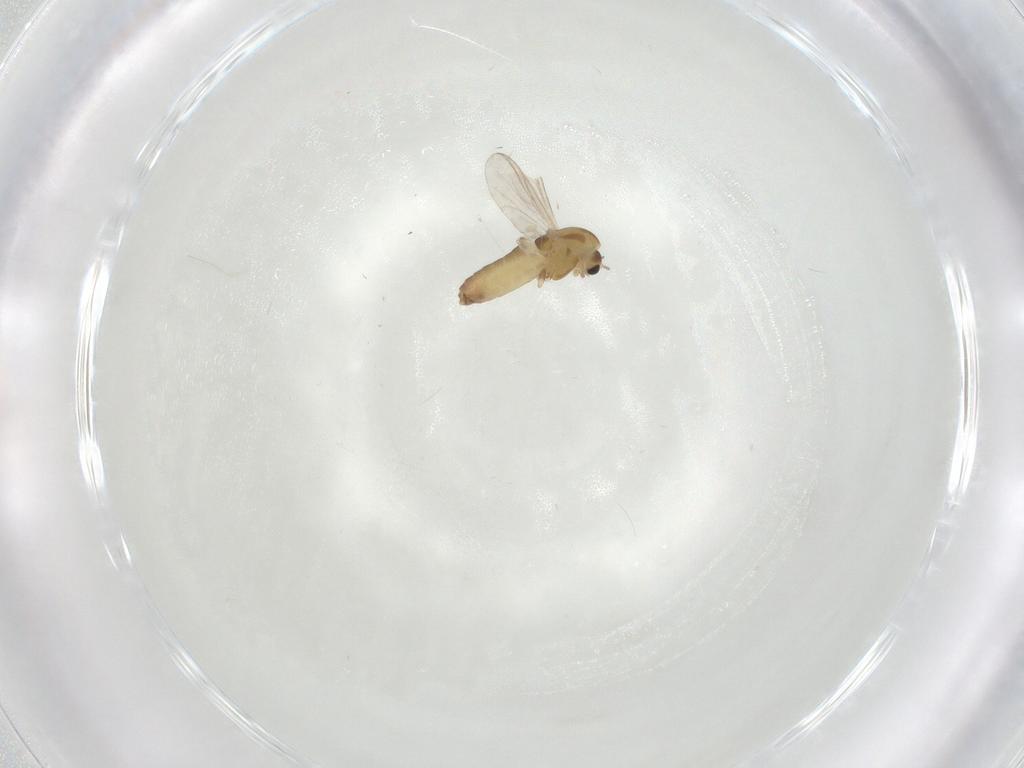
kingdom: Animalia
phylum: Arthropoda
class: Insecta
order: Diptera
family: Chironomidae
